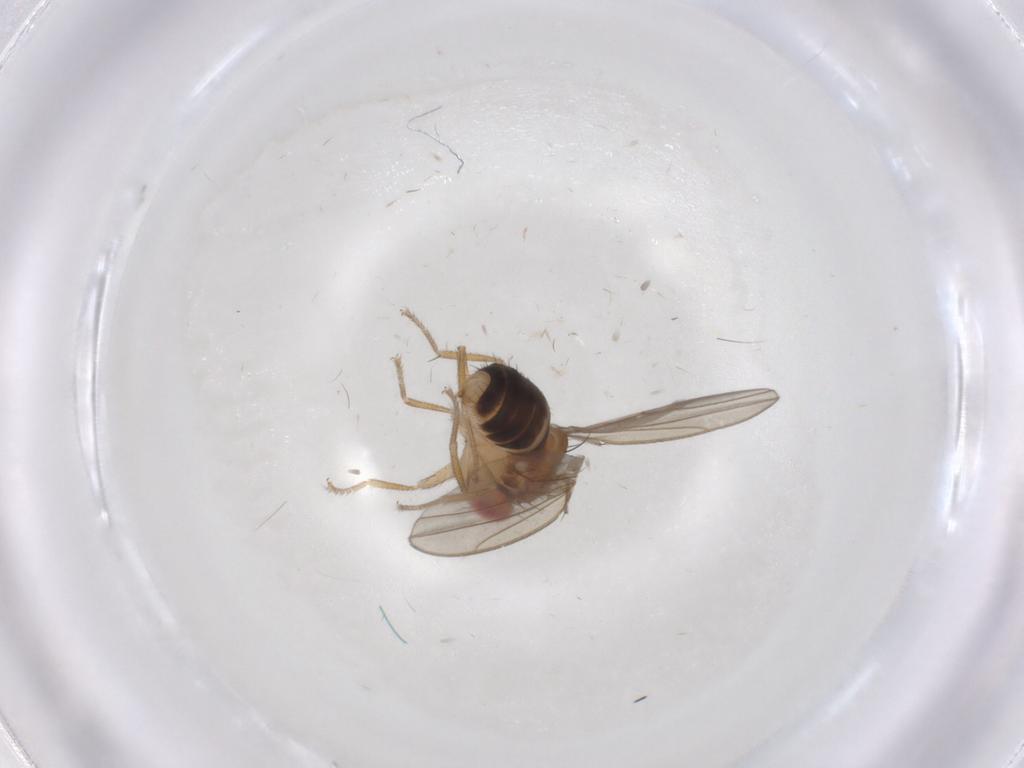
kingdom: Animalia
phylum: Arthropoda
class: Insecta
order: Diptera
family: Drosophilidae
